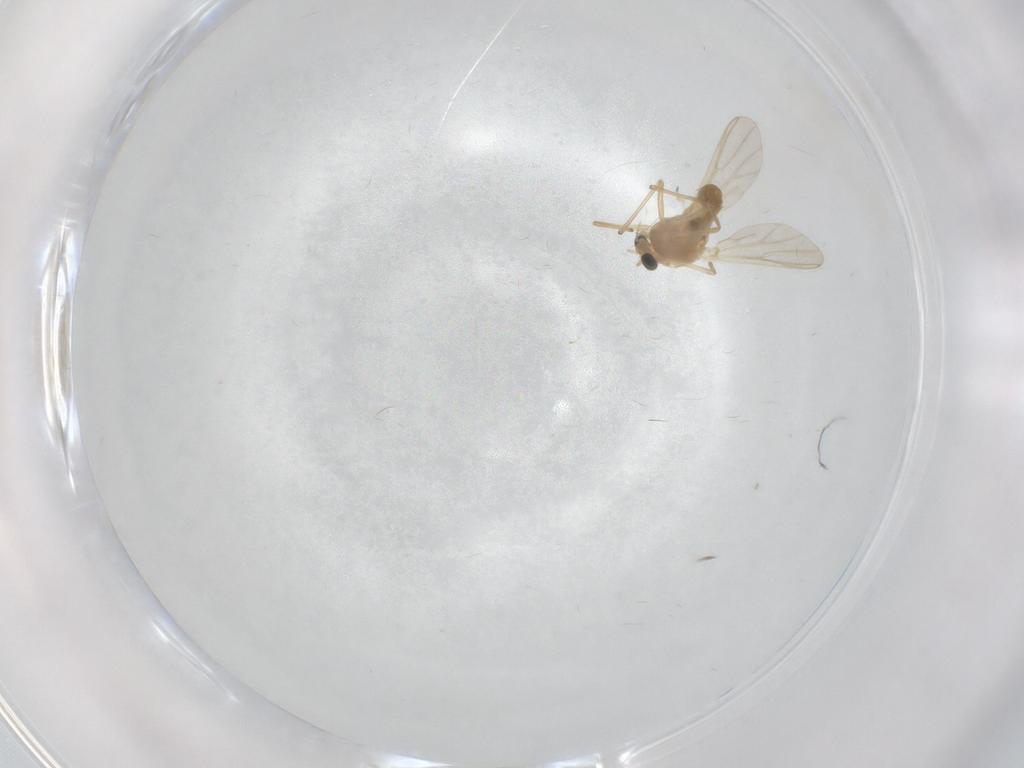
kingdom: Animalia
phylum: Arthropoda
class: Insecta
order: Diptera
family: Chironomidae
